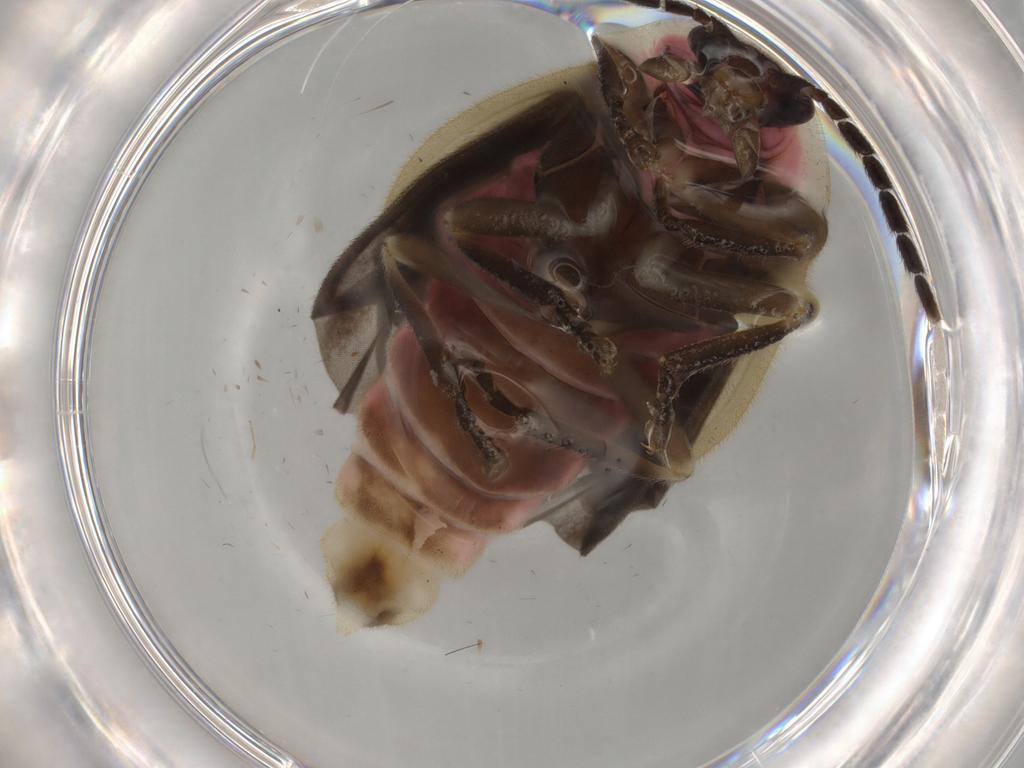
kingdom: Animalia
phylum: Arthropoda
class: Insecta
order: Coleoptera
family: Lampyridae
